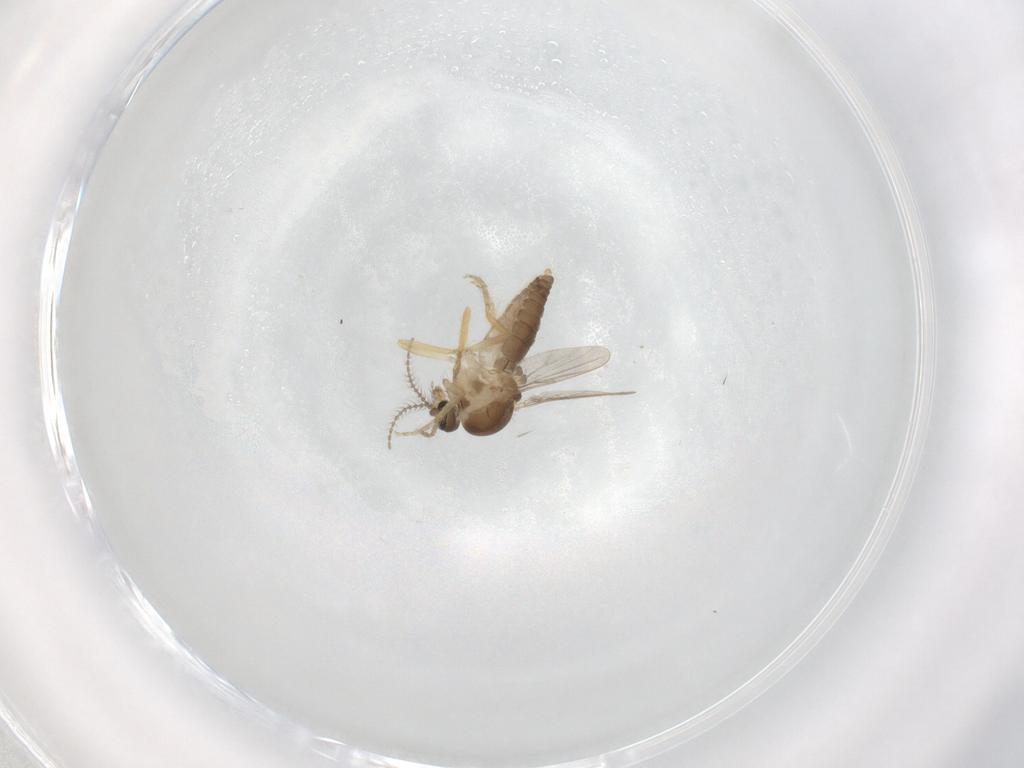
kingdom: Animalia
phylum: Arthropoda
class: Insecta
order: Diptera
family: Ceratopogonidae
